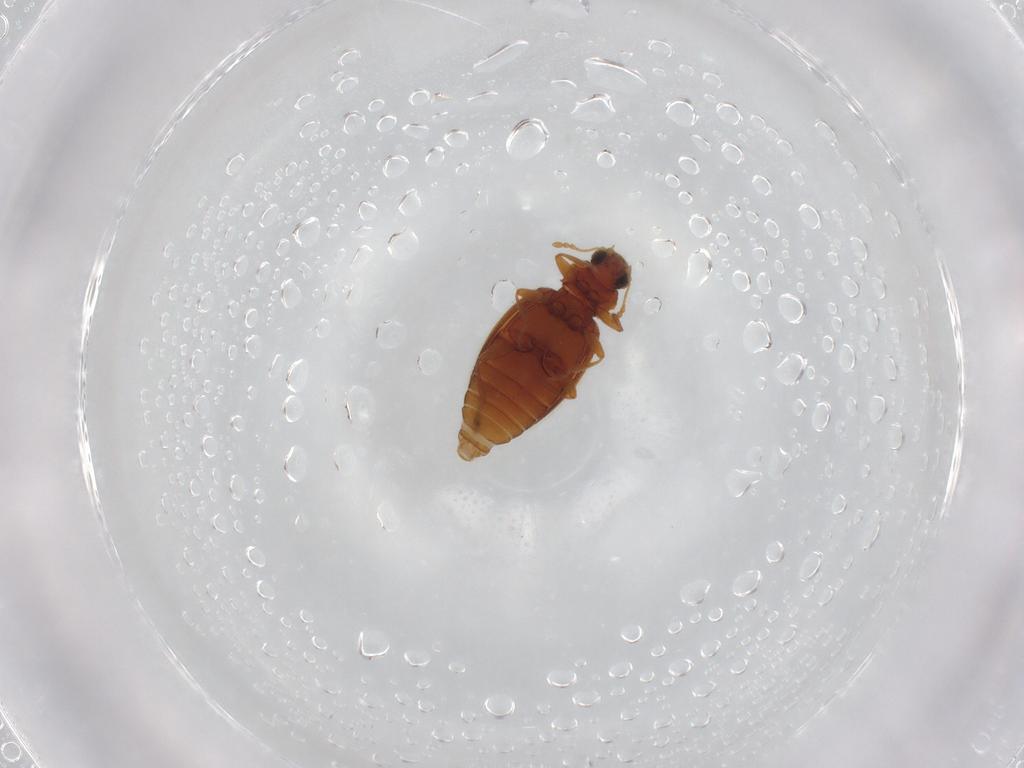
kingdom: Animalia
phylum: Arthropoda
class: Insecta
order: Coleoptera
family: Latridiidae
